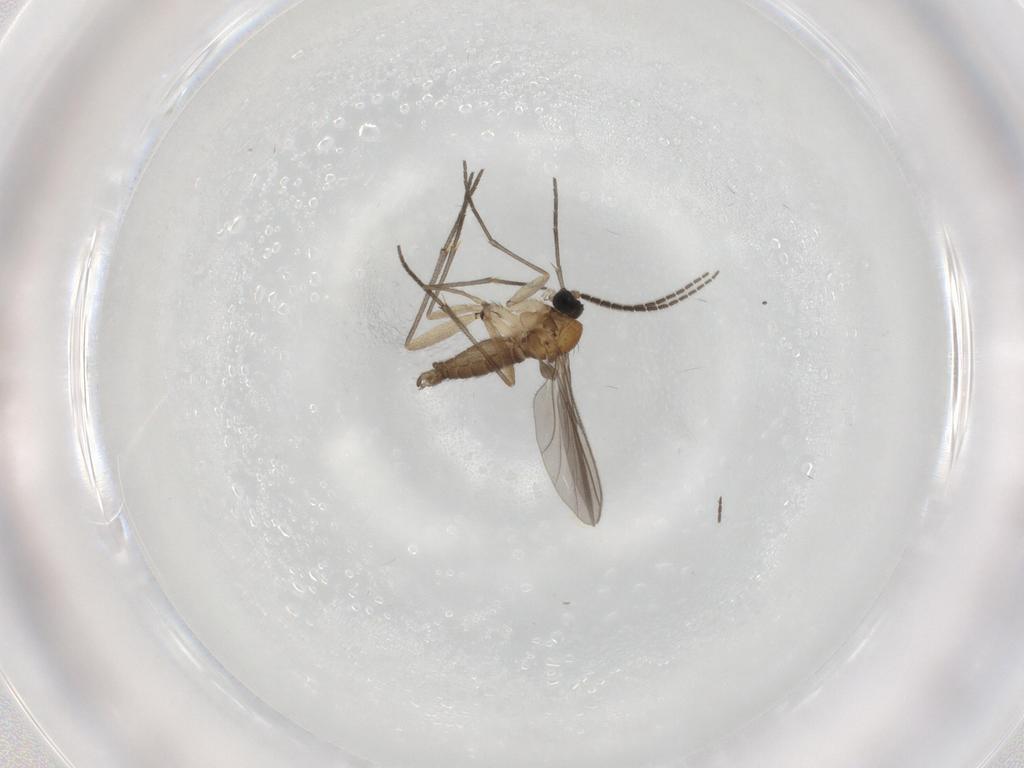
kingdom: Animalia
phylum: Arthropoda
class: Insecta
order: Diptera
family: Sciaridae
